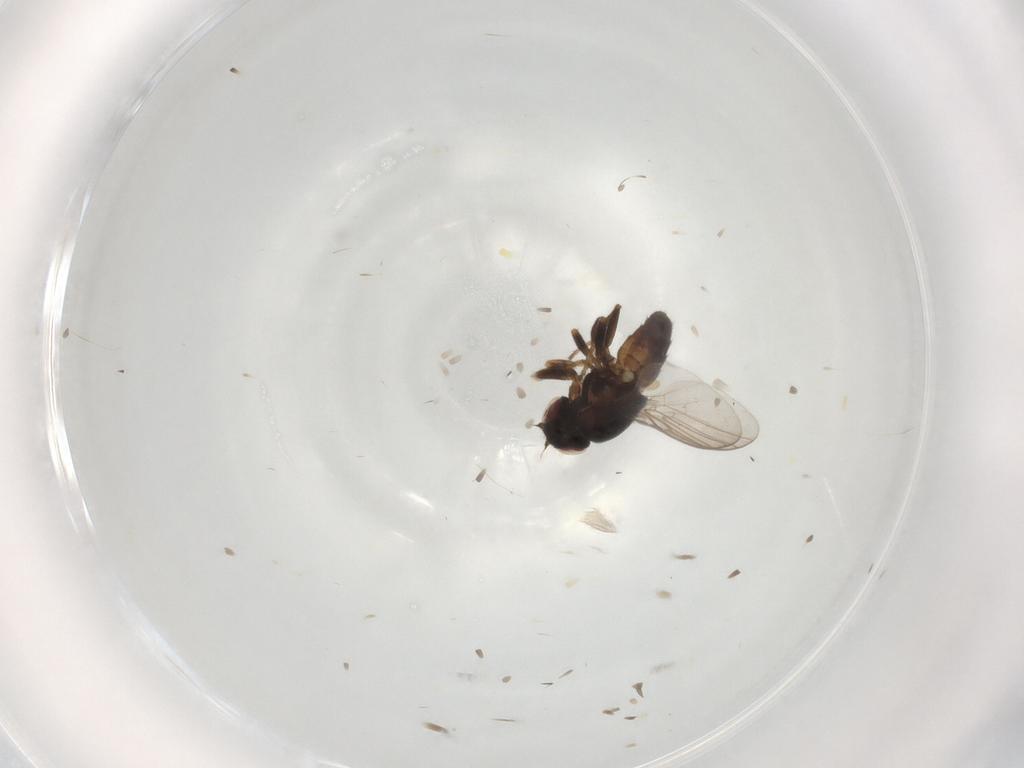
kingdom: Animalia
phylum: Arthropoda
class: Insecta
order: Diptera
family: Chloropidae
